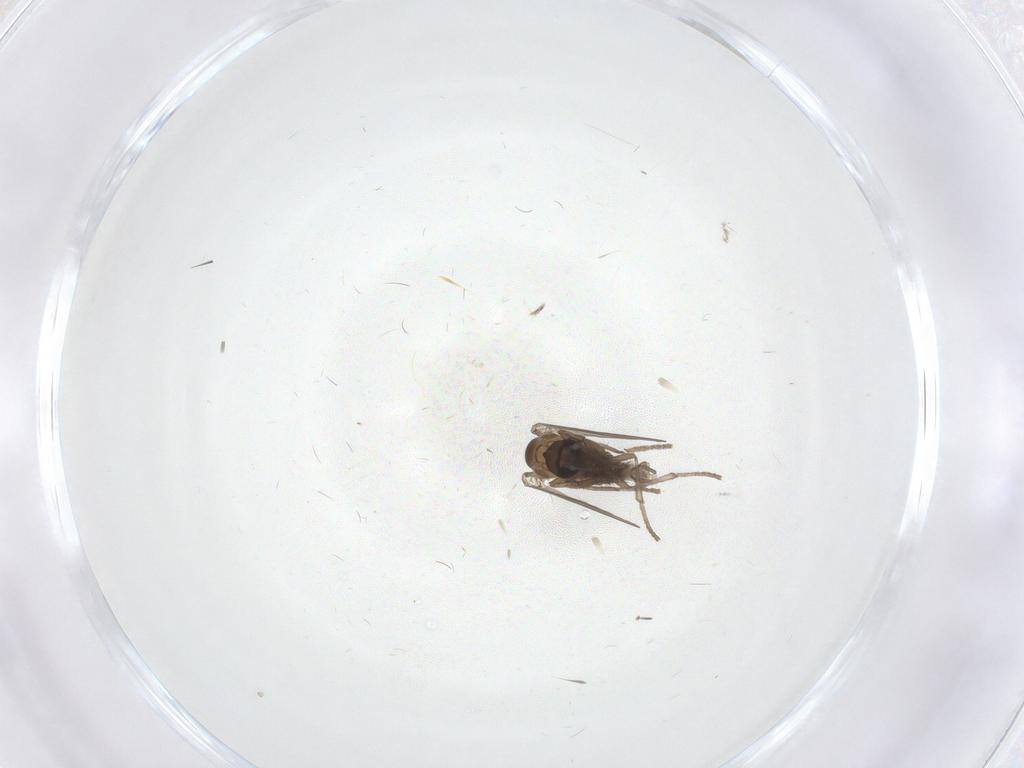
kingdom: Animalia
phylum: Arthropoda
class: Insecta
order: Diptera
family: Psychodidae
